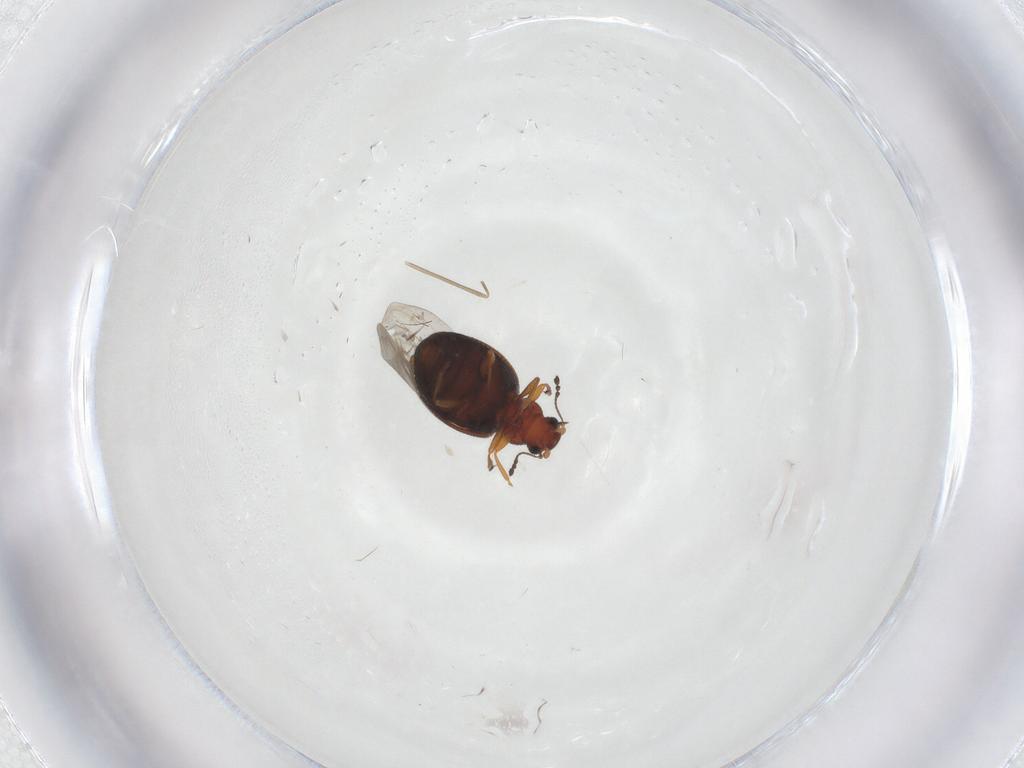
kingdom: Animalia
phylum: Arthropoda
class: Insecta
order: Coleoptera
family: Latridiidae
